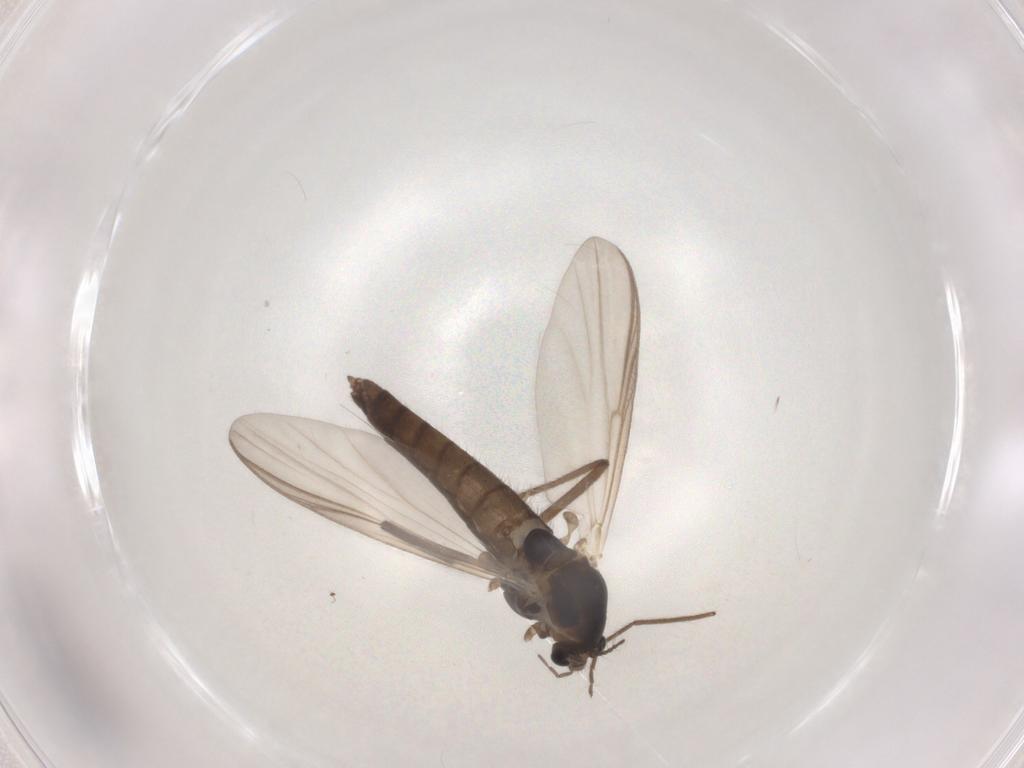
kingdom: Animalia
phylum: Arthropoda
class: Insecta
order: Diptera
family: Chironomidae
